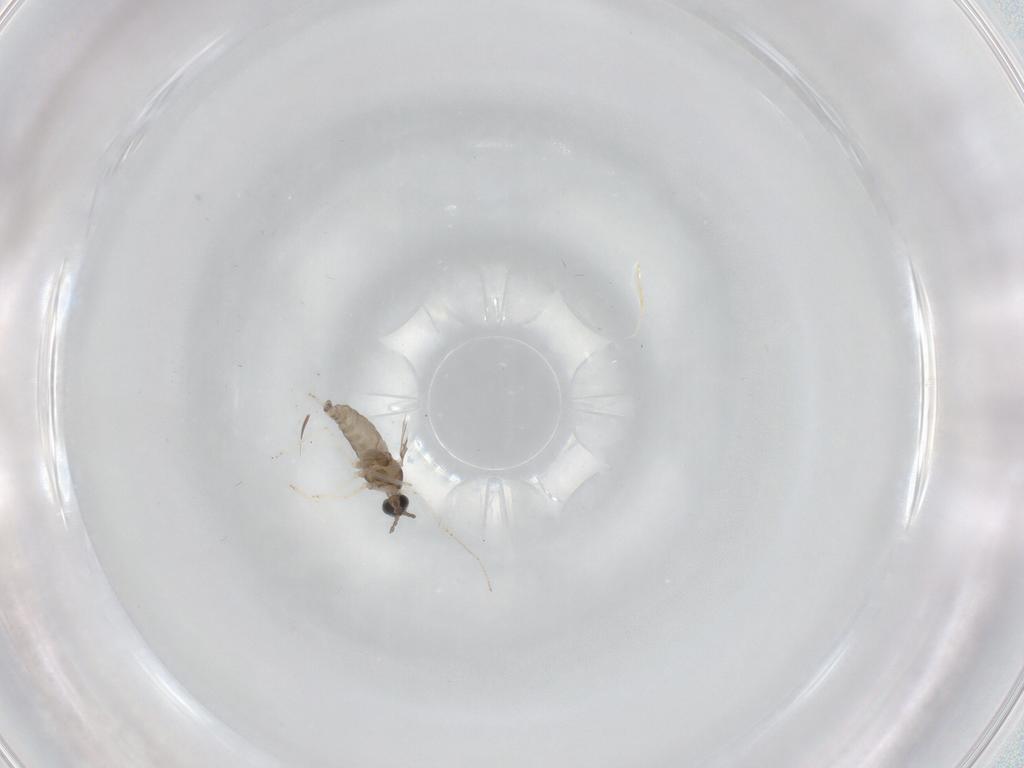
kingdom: Animalia
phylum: Arthropoda
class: Insecta
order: Diptera
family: Cecidomyiidae
